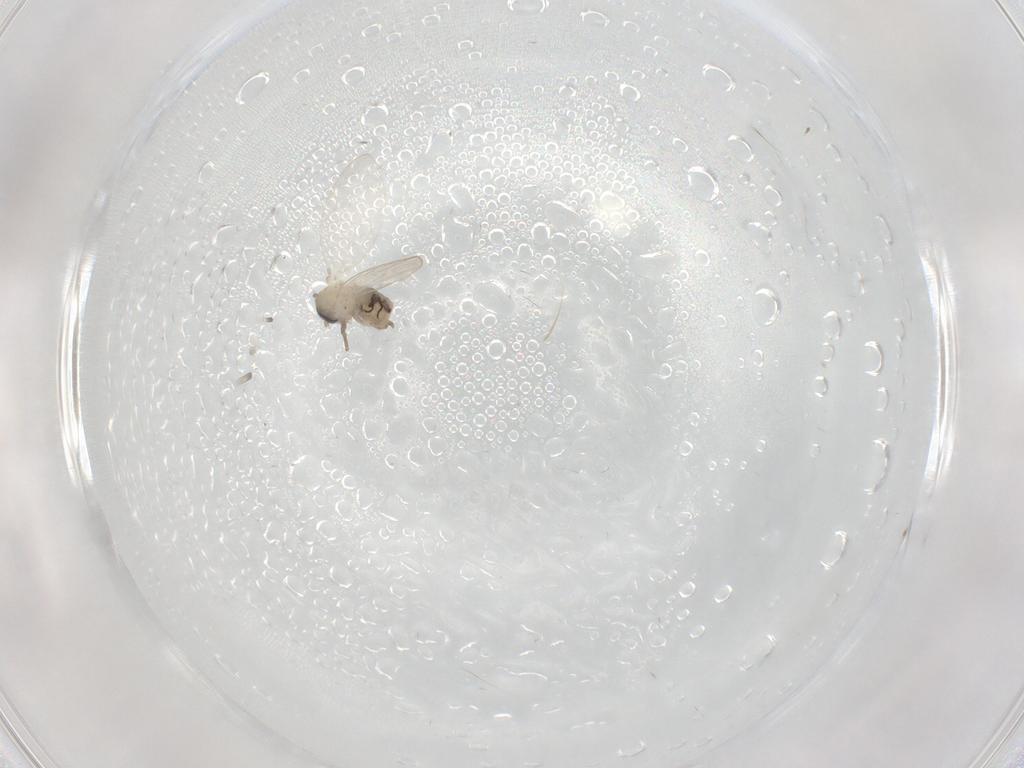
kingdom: Animalia
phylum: Arthropoda
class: Insecta
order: Diptera
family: Psychodidae
